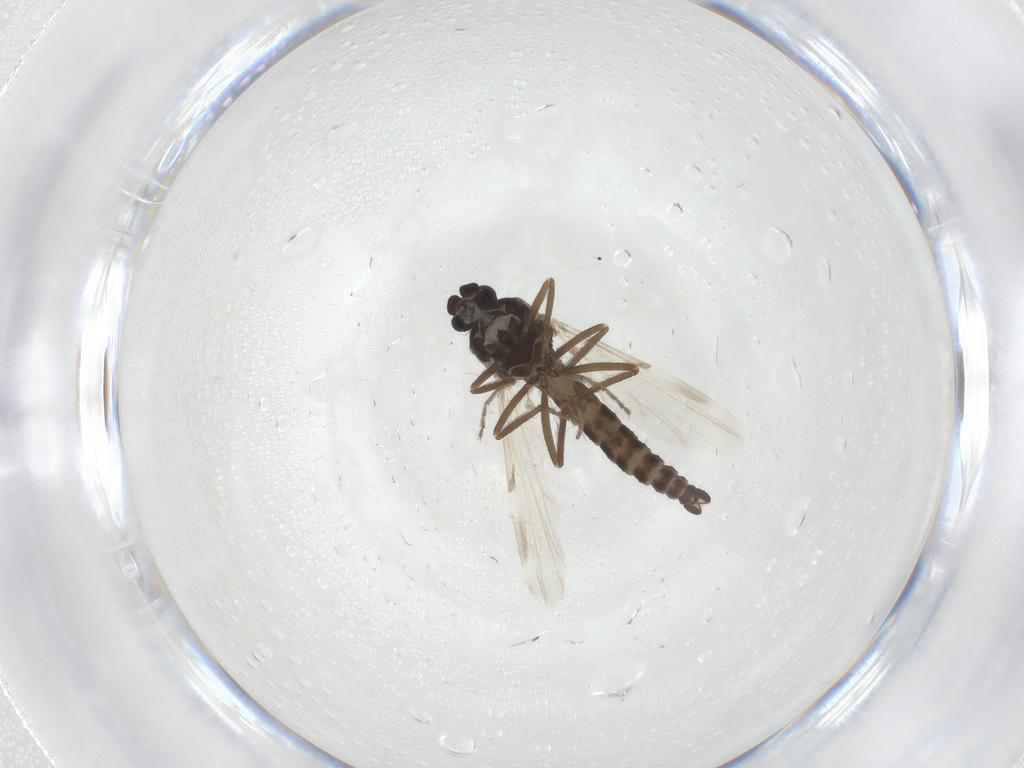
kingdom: Animalia
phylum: Arthropoda
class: Insecta
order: Diptera
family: Ceratopogonidae
